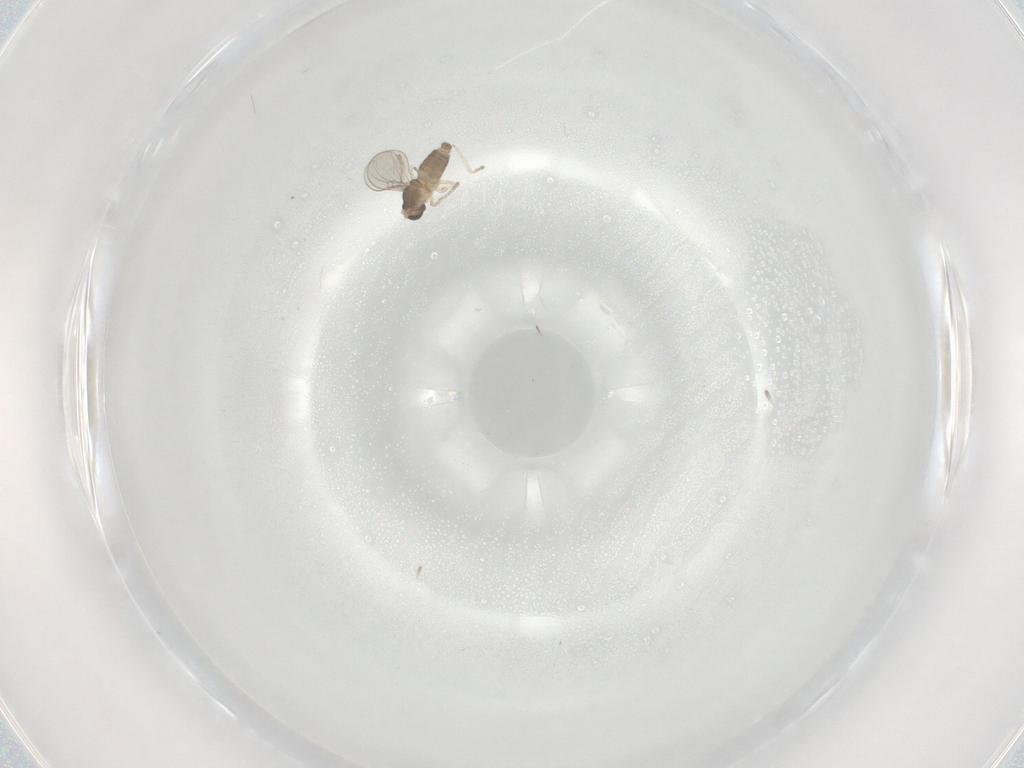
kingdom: Animalia
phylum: Arthropoda
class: Insecta
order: Diptera
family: Cecidomyiidae
